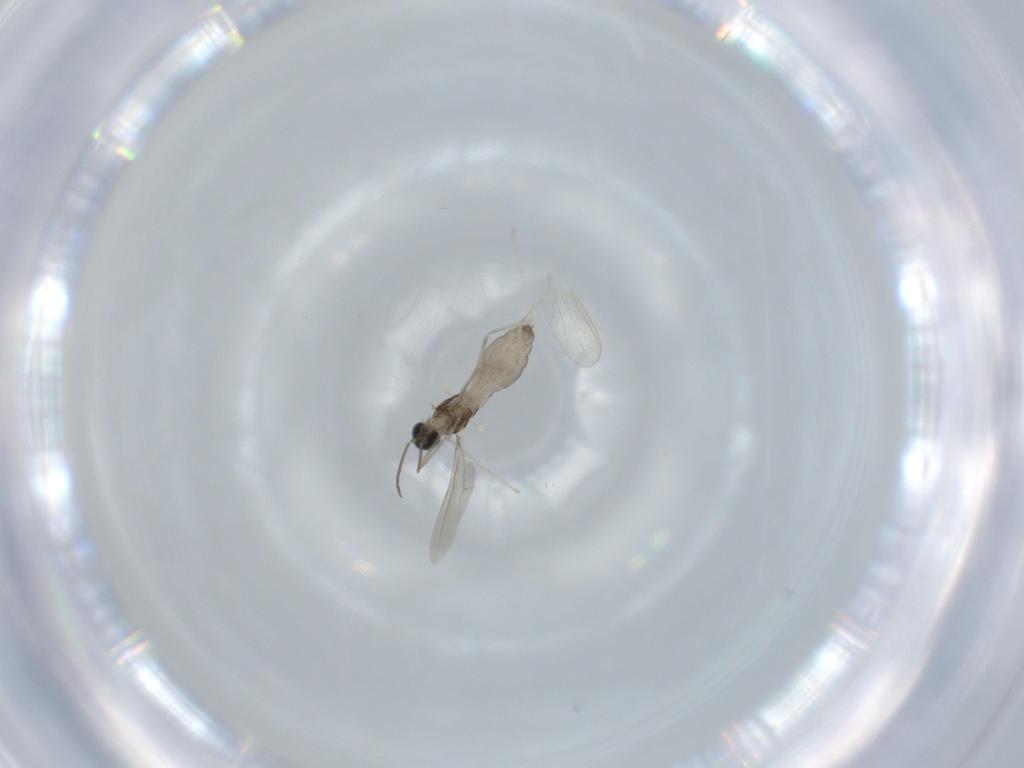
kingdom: Animalia
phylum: Arthropoda
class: Insecta
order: Diptera
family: Cecidomyiidae
